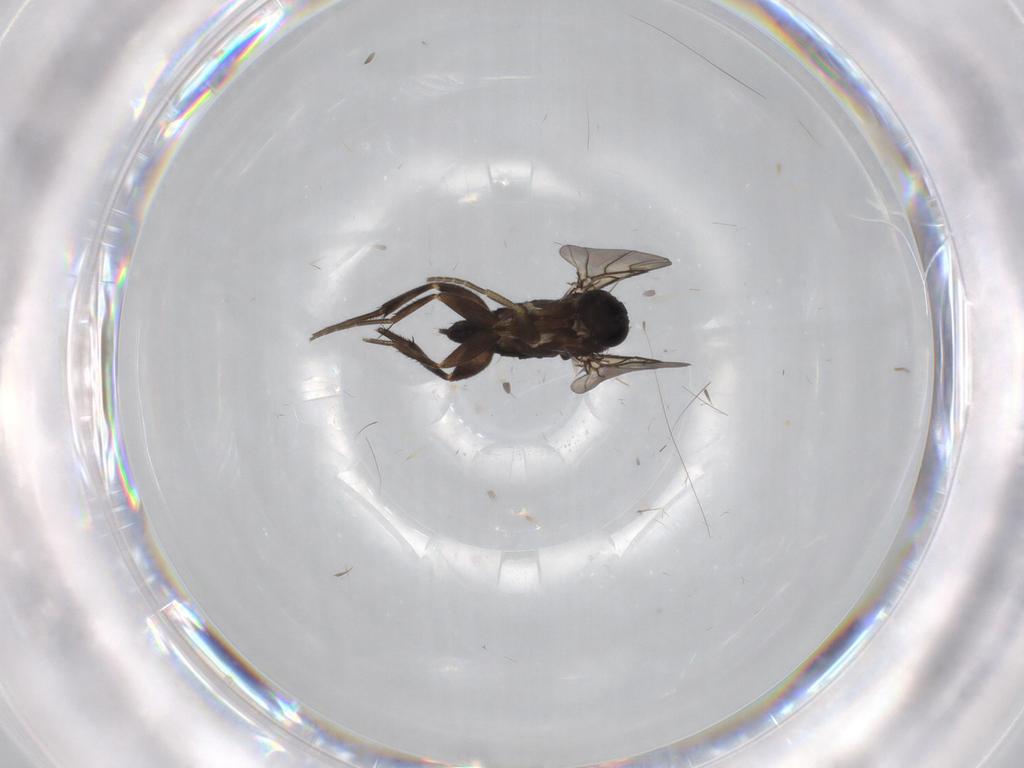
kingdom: Animalia
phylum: Arthropoda
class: Insecta
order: Diptera
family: Phoridae
